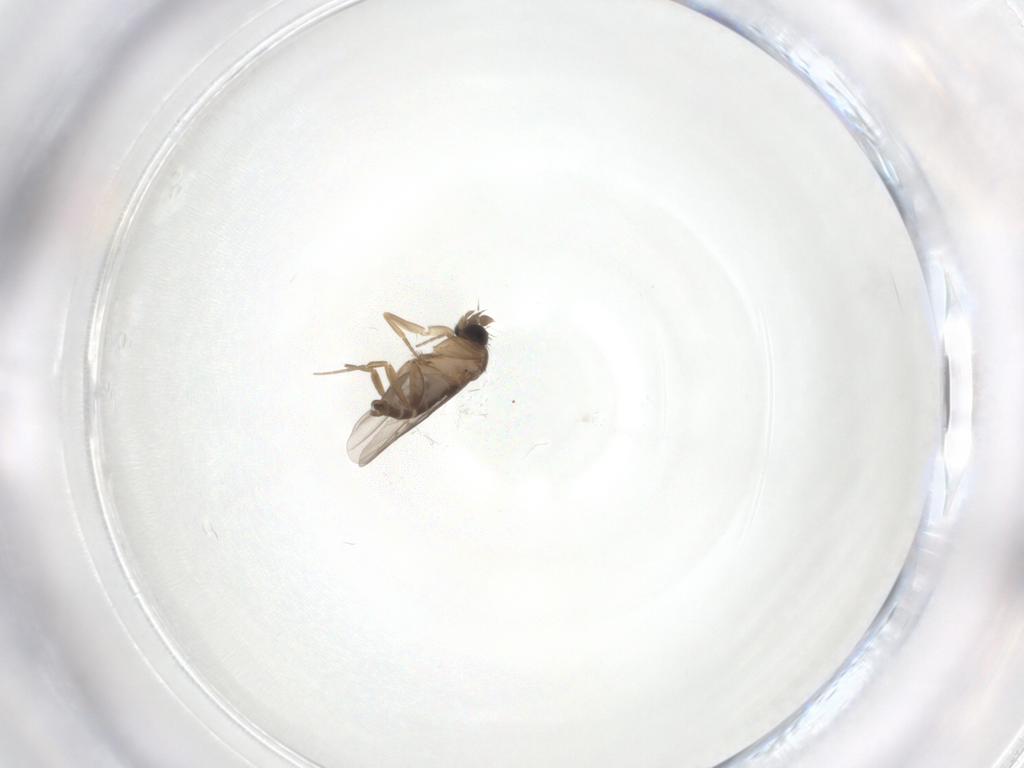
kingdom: Animalia
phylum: Arthropoda
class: Insecta
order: Diptera
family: Phoridae
